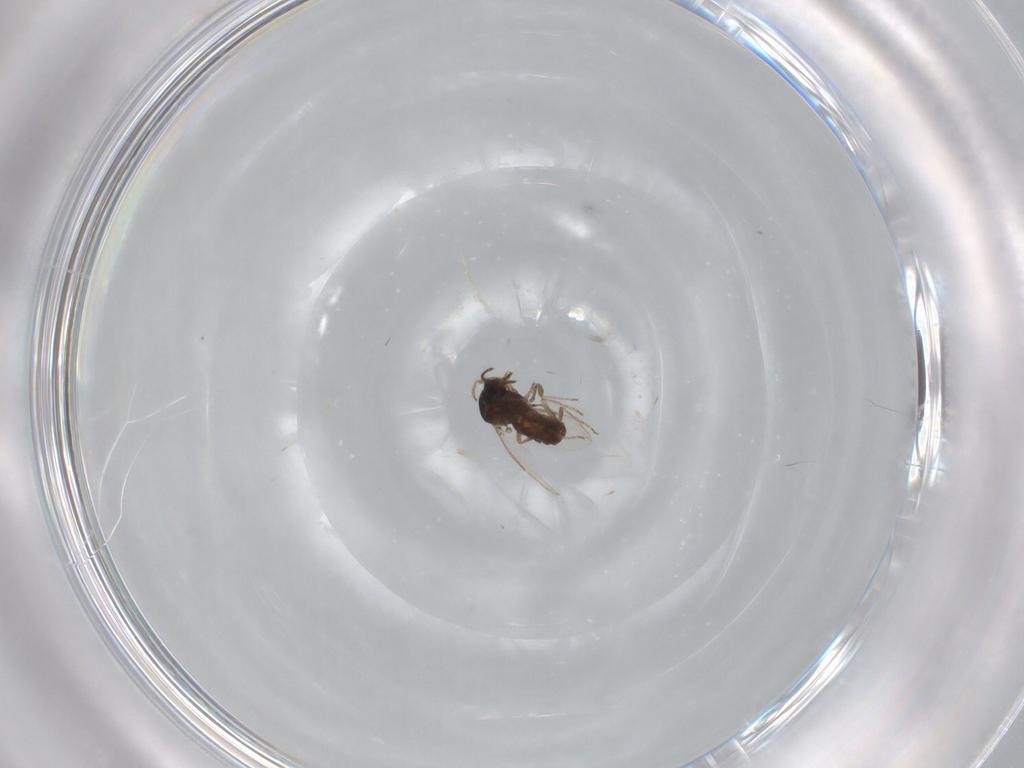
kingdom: Animalia
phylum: Arthropoda
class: Insecta
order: Diptera
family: Ceratopogonidae
